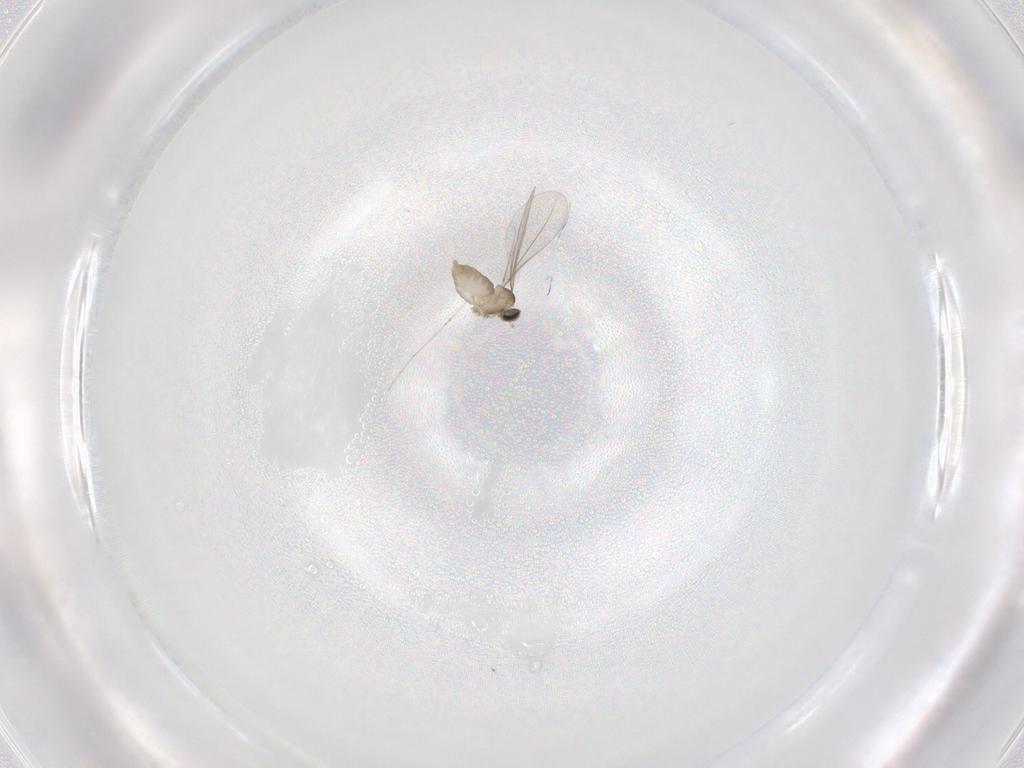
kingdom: Animalia
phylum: Arthropoda
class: Insecta
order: Diptera
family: Cecidomyiidae
